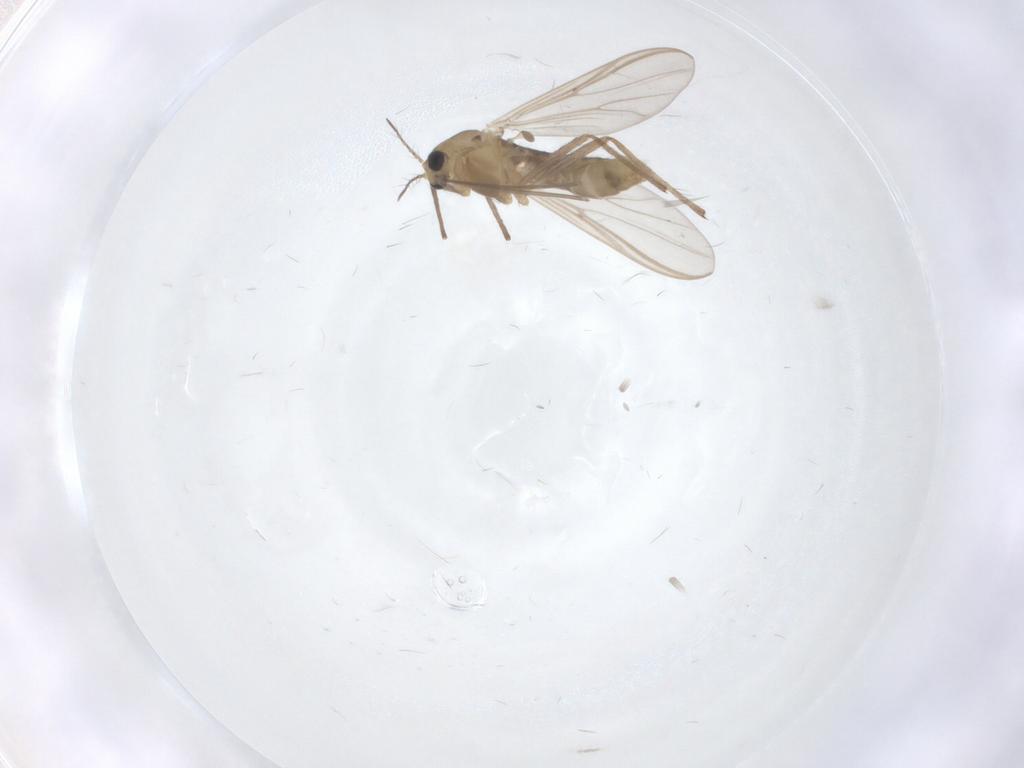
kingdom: Animalia
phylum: Arthropoda
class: Insecta
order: Diptera
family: Chironomidae
